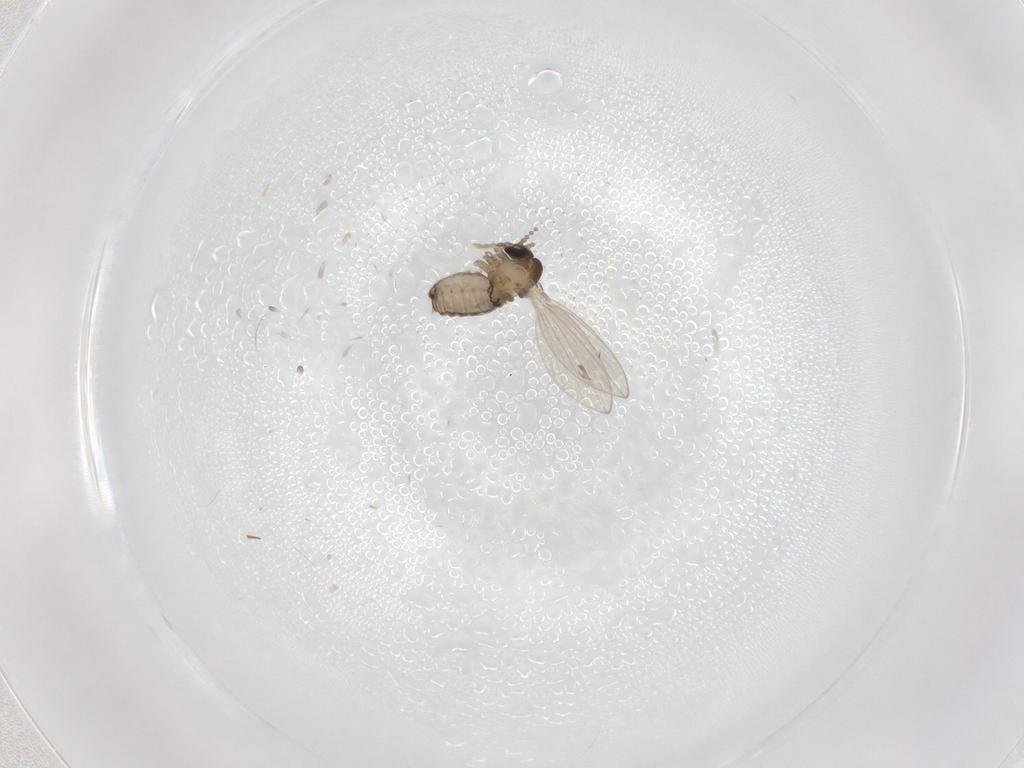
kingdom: Animalia
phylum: Arthropoda
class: Insecta
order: Diptera
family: Psychodidae
